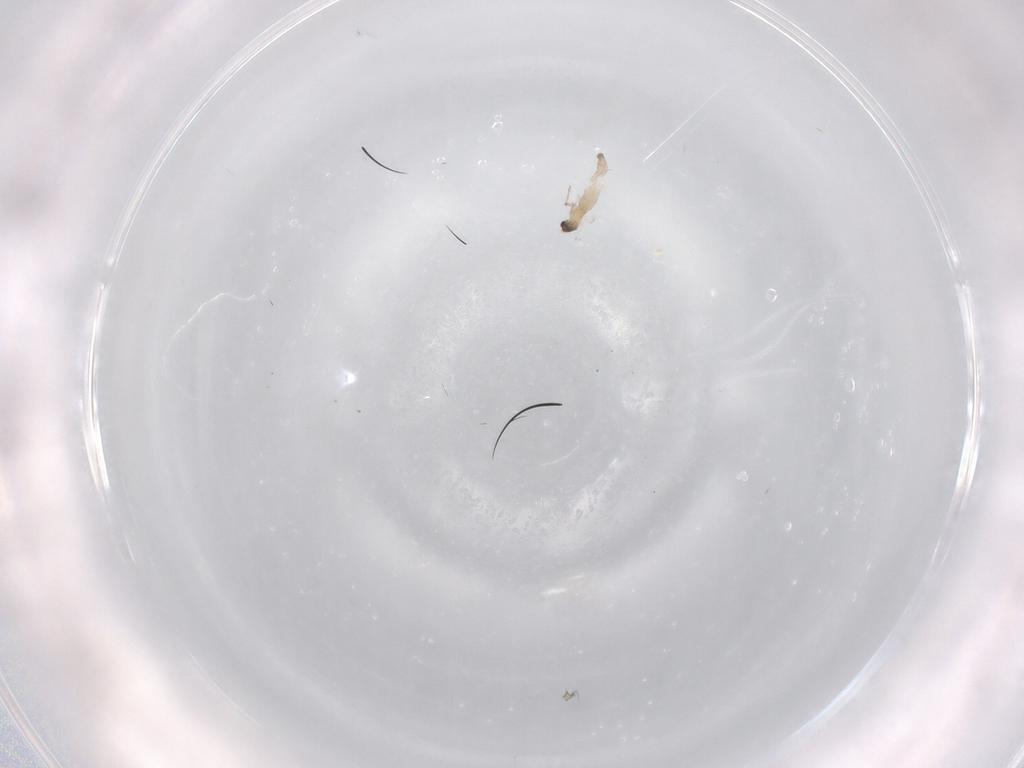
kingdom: Animalia
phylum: Arthropoda
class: Insecta
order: Diptera
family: Cecidomyiidae
